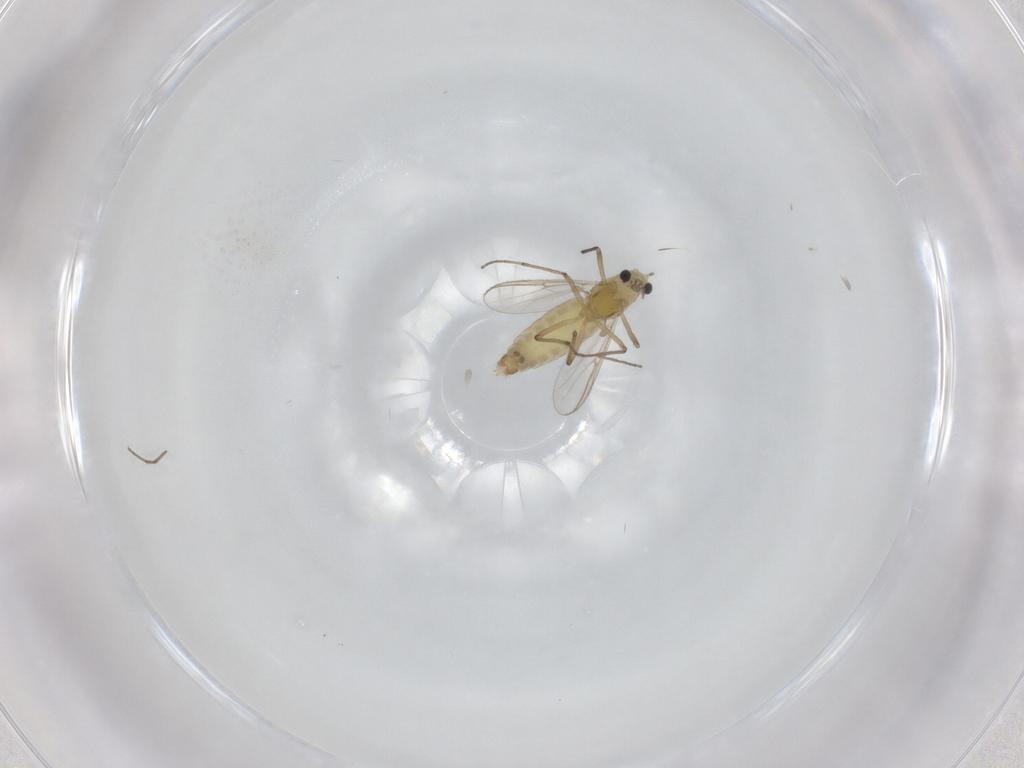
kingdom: Animalia
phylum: Arthropoda
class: Insecta
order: Diptera
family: Chironomidae
